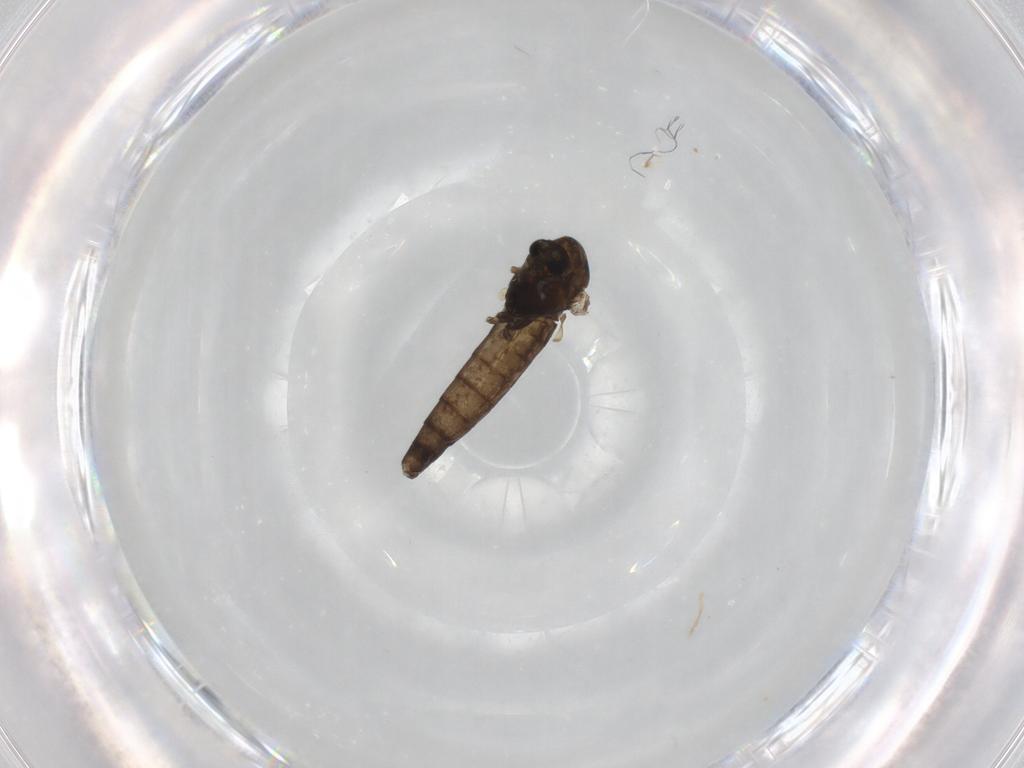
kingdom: Animalia
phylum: Arthropoda
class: Insecta
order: Diptera
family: Chironomidae
